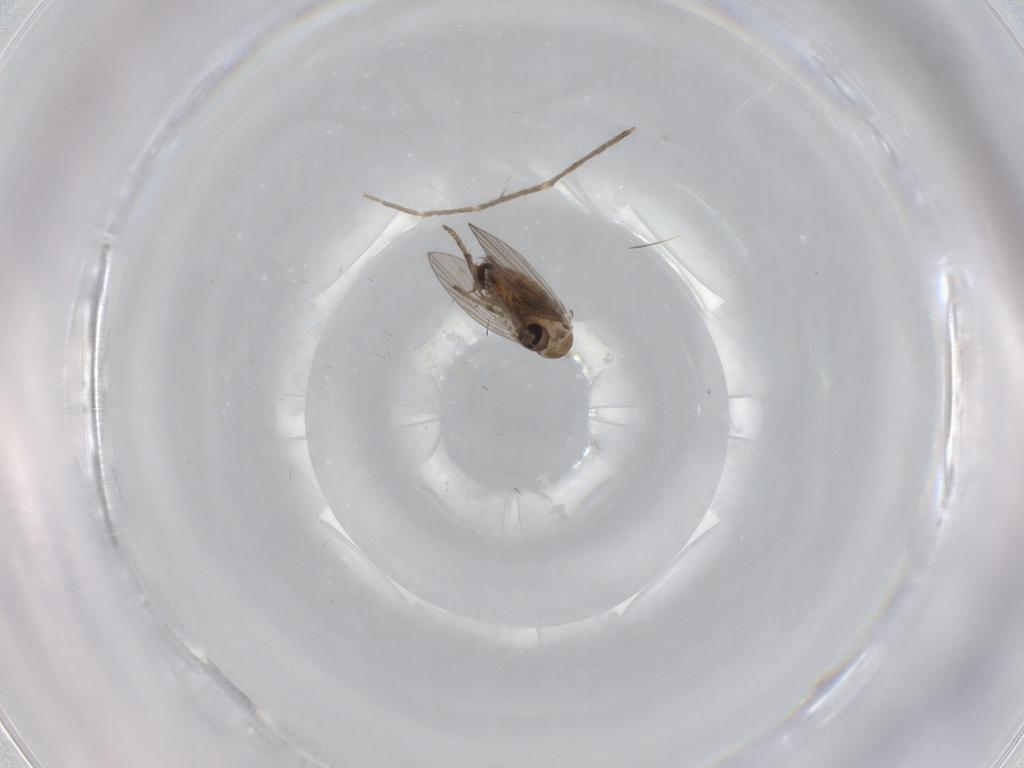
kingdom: Animalia
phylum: Arthropoda
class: Insecta
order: Diptera
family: Psychodidae
